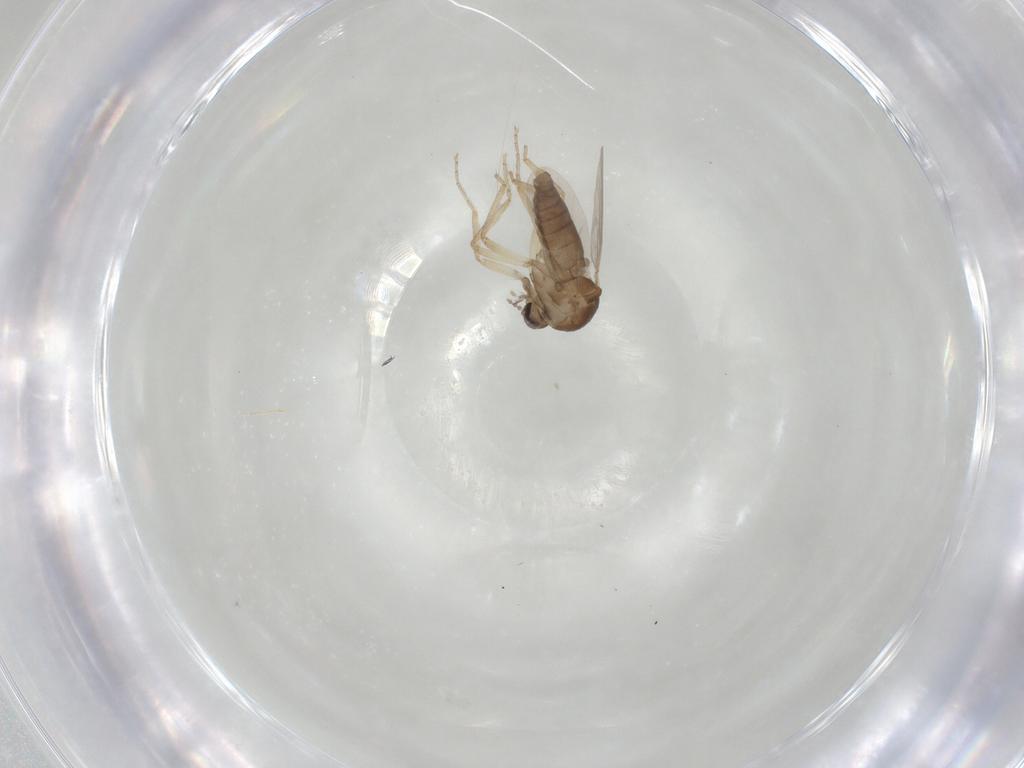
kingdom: Animalia
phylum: Arthropoda
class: Insecta
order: Diptera
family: Ceratopogonidae
